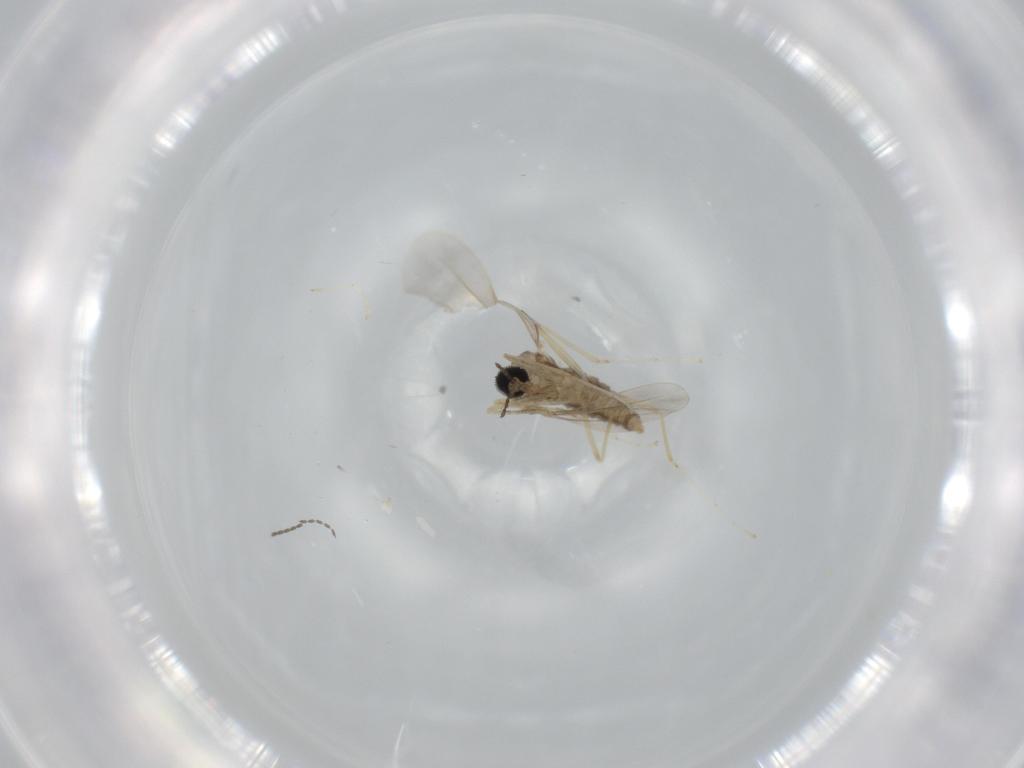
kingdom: Animalia
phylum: Arthropoda
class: Insecta
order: Diptera
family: Cecidomyiidae
